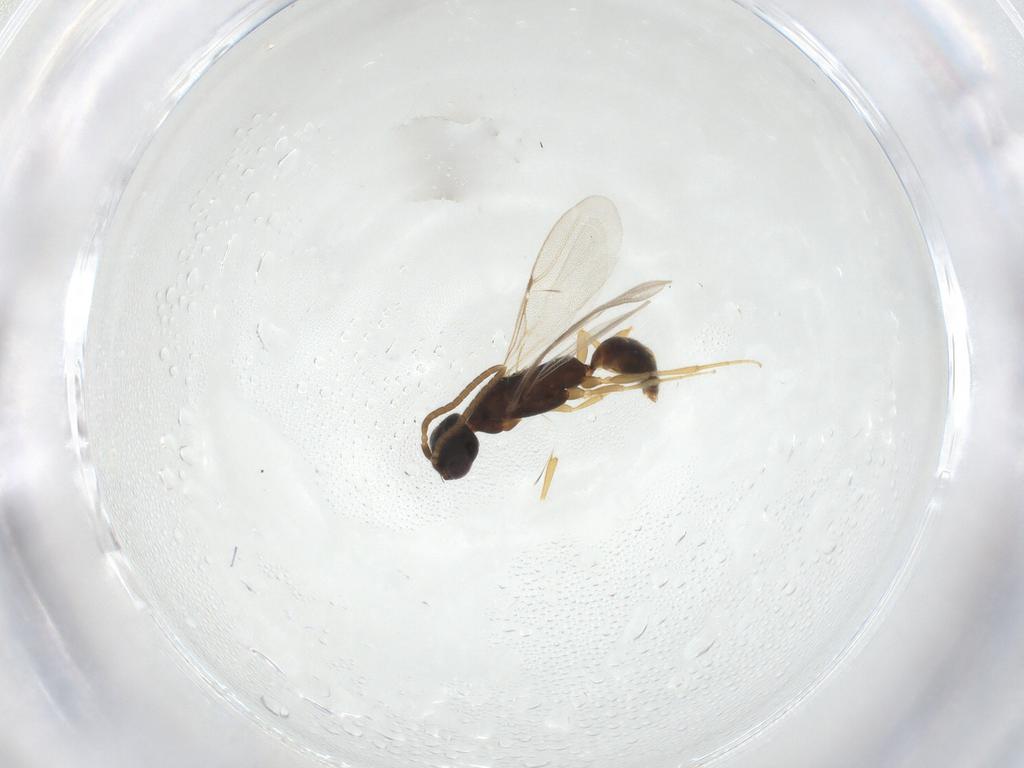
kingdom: Animalia
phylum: Arthropoda
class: Insecta
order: Hymenoptera
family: Bethylidae
